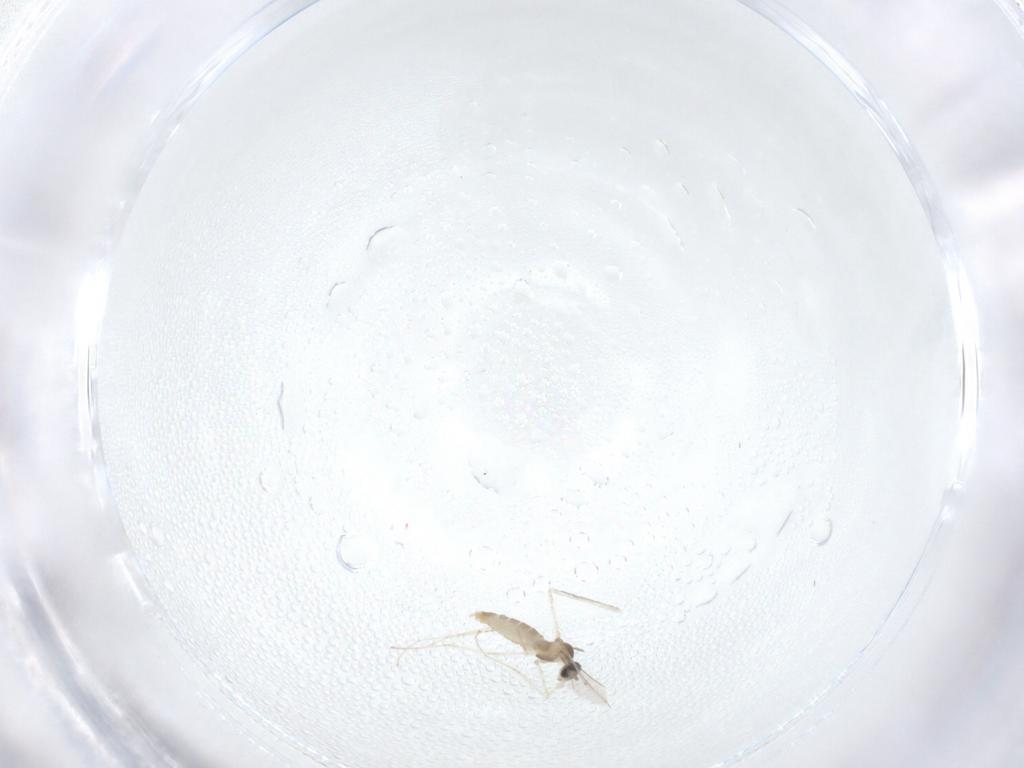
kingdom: Animalia
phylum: Arthropoda
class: Insecta
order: Diptera
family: Cecidomyiidae
